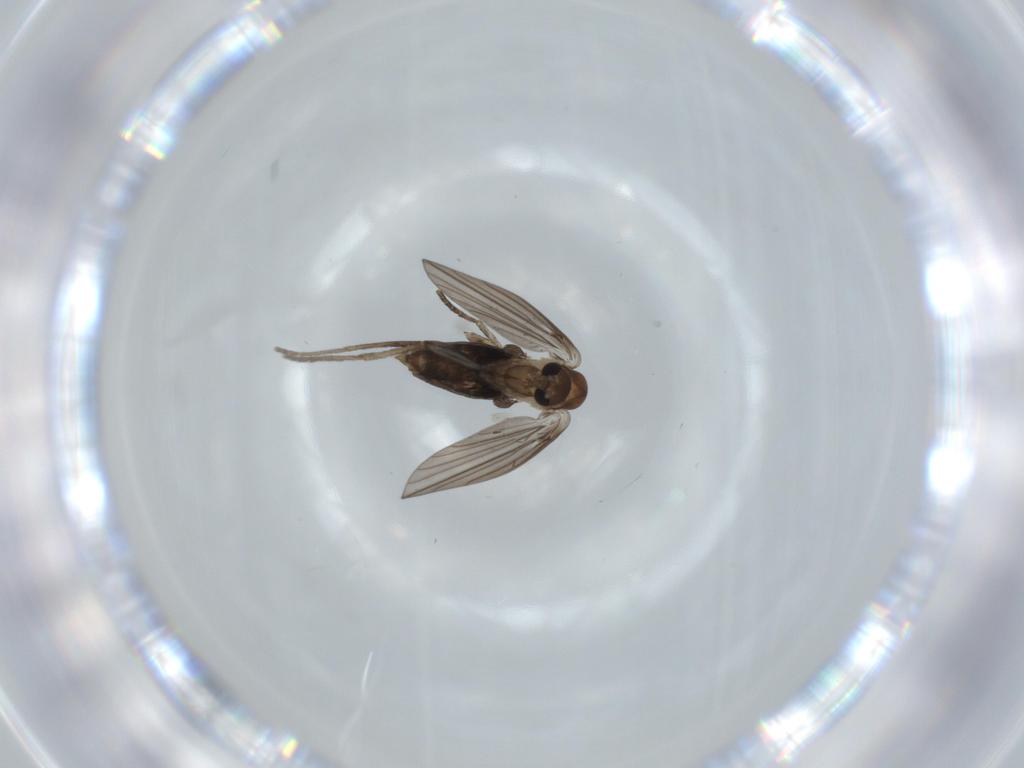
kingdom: Animalia
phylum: Arthropoda
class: Insecta
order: Diptera
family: Psychodidae
